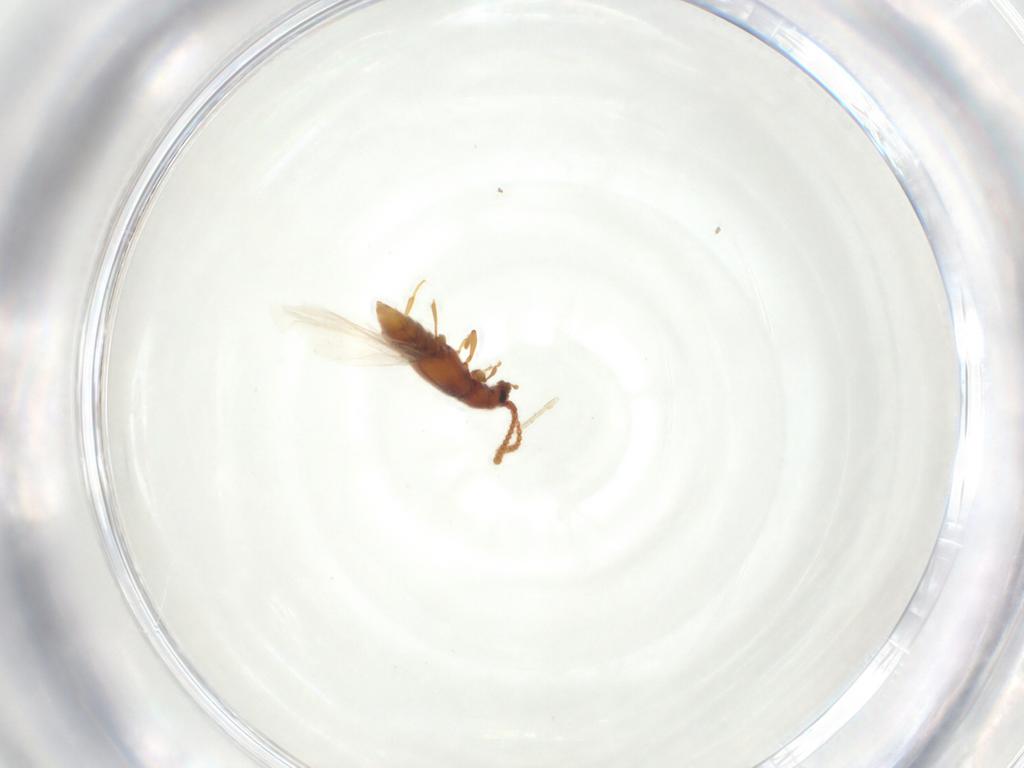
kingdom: Animalia
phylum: Arthropoda
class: Insecta
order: Coleoptera
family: Staphylinidae
